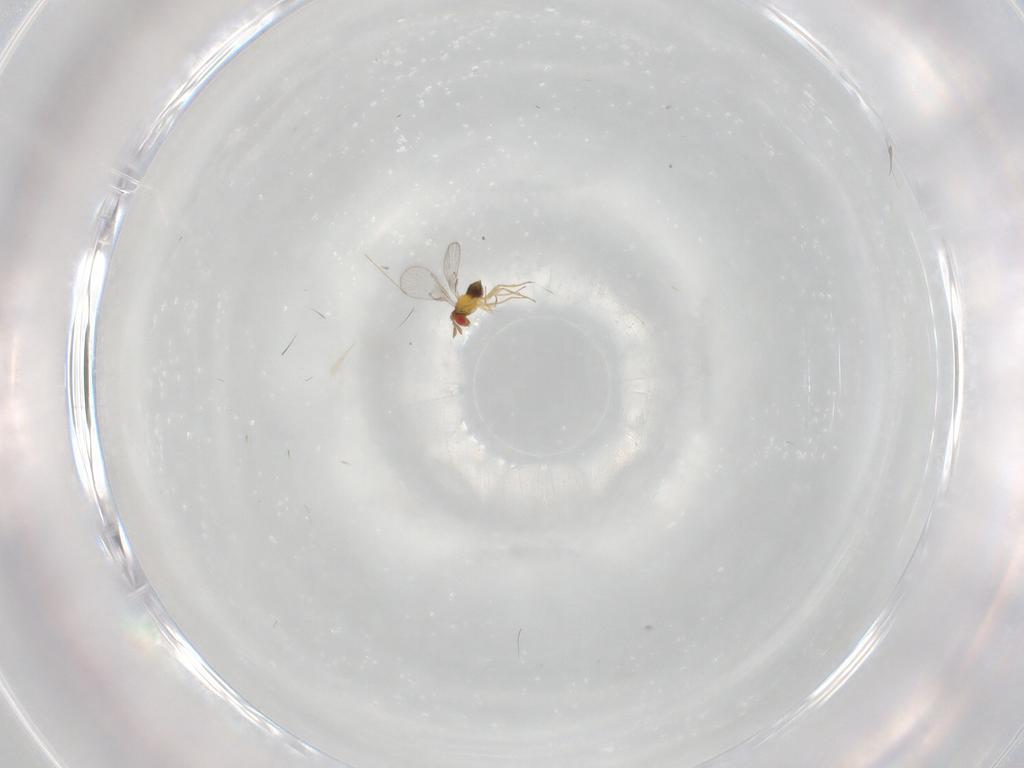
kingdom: Animalia
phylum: Arthropoda
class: Insecta
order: Hymenoptera
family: Trichogrammatidae
